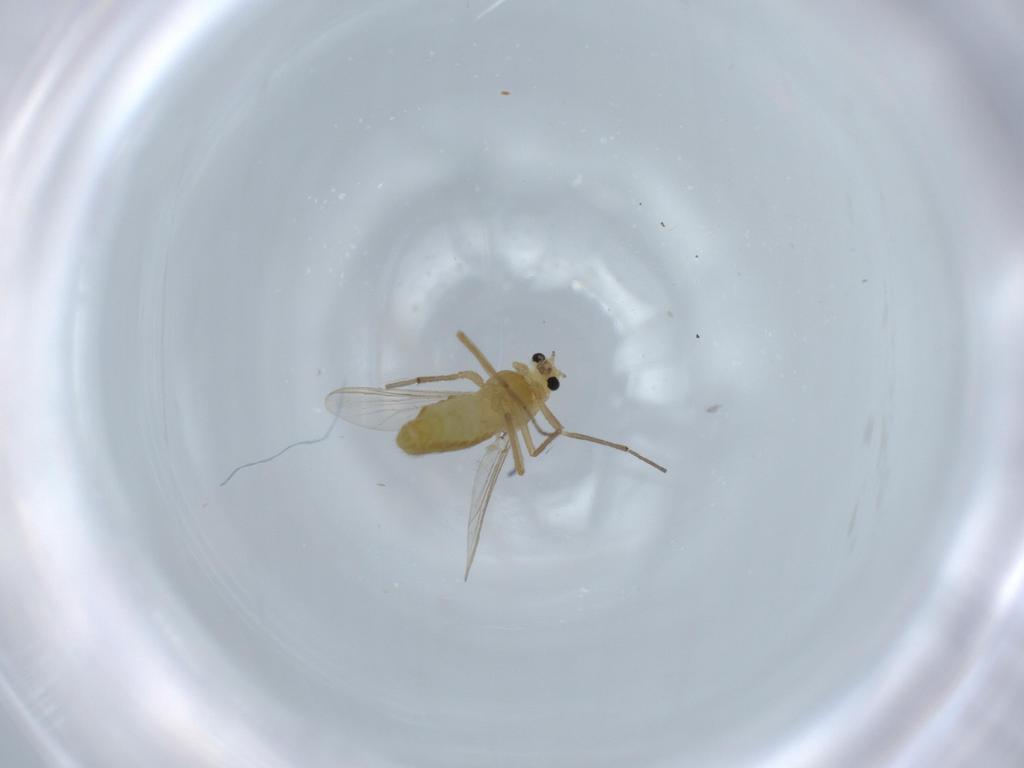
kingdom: Animalia
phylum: Arthropoda
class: Insecta
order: Diptera
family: Chironomidae
